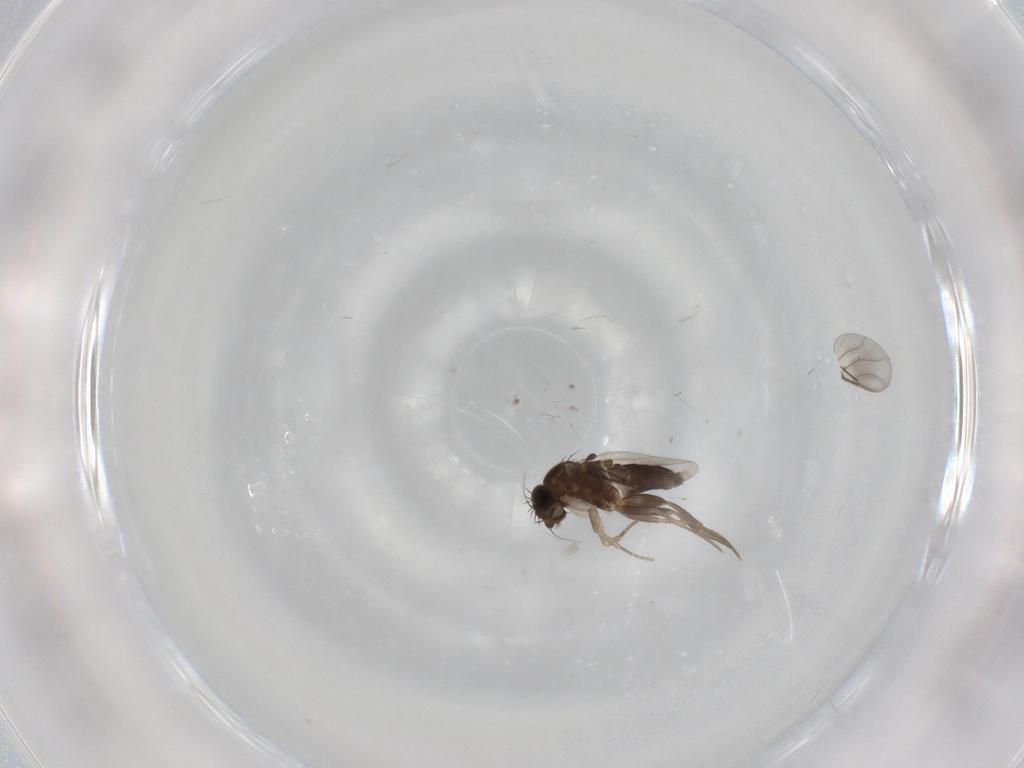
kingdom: Animalia
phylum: Arthropoda
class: Insecta
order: Diptera
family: Phoridae
